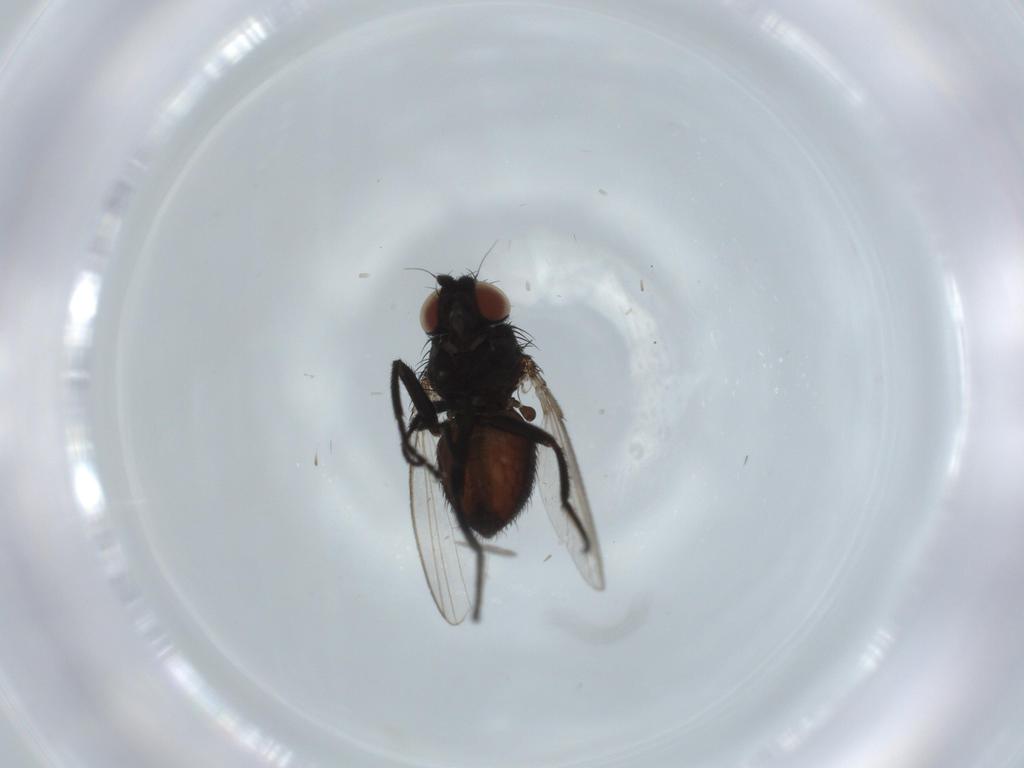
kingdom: Animalia
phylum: Arthropoda
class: Insecta
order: Diptera
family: Milichiidae
